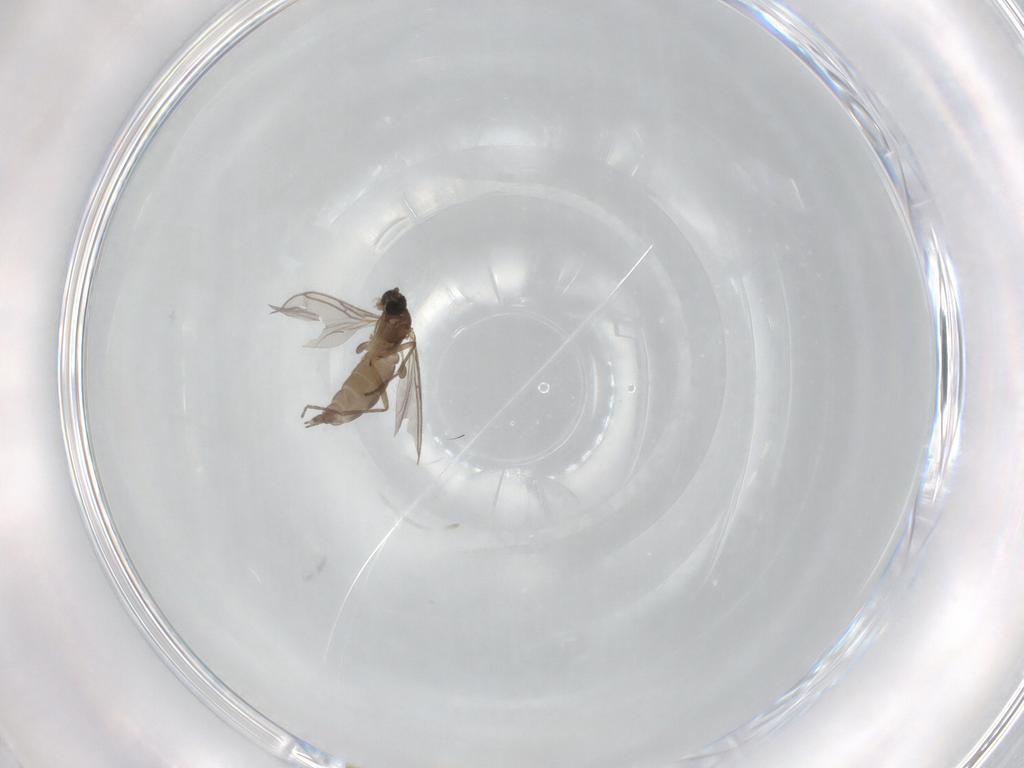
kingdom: Animalia
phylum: Arthropoda
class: Insecta
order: Diptera
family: Sciaridae
